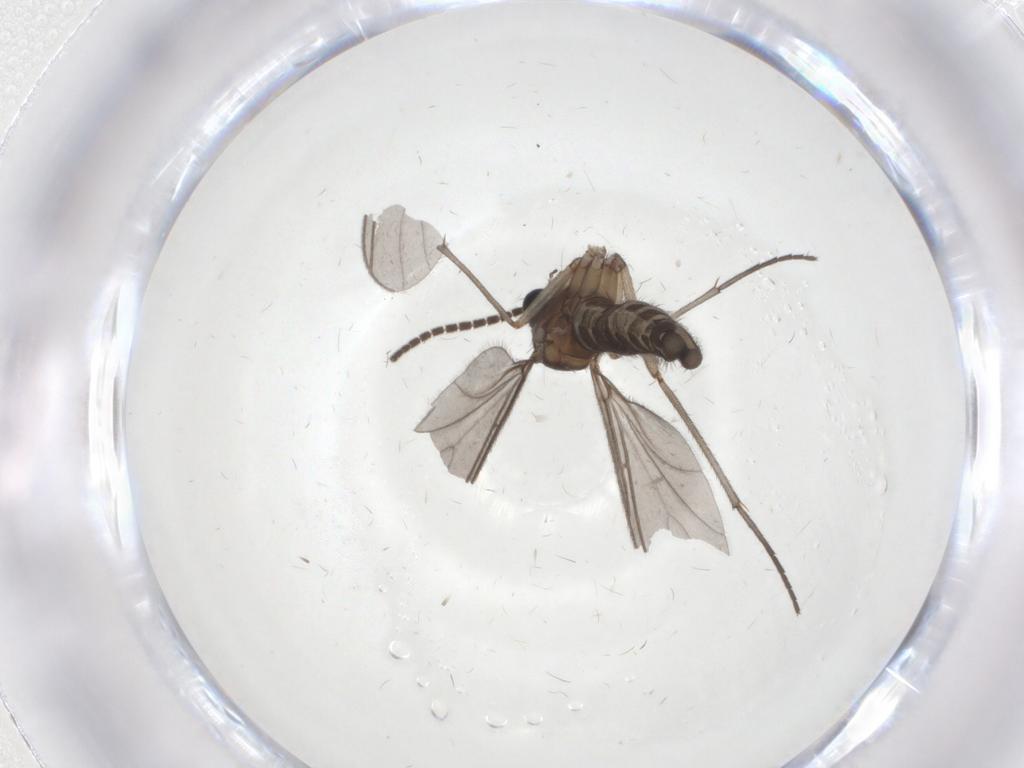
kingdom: Animalia
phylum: Arthropoda
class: Insecta
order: Diptera
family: Sciaridae
